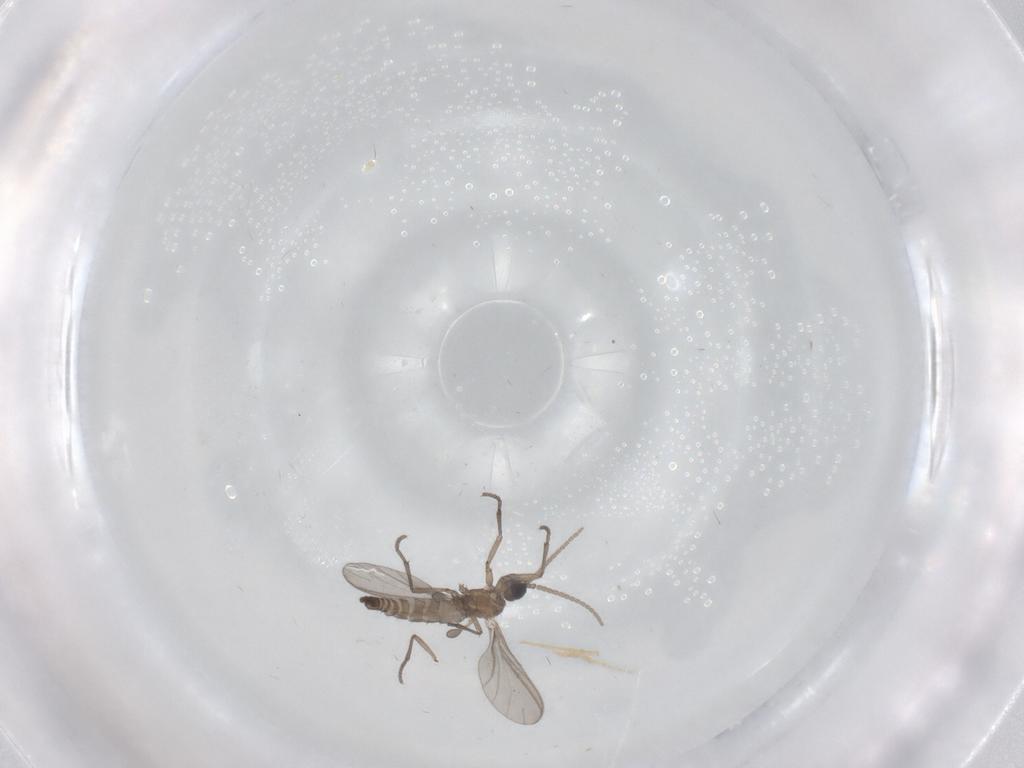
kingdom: Animalia
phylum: Arthropoda
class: Insecta
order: Diptera
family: Sciaridae
